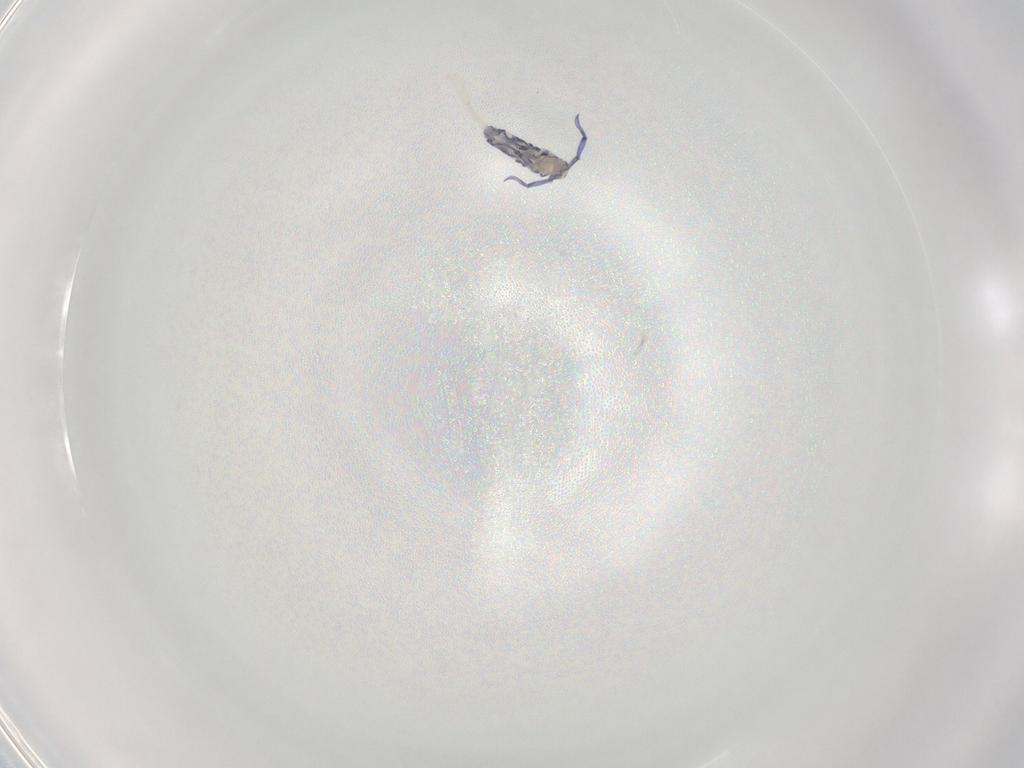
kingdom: Animalia
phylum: Arthropoda
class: Collembola
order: Entomobryomorpha
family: Entomobryidae
